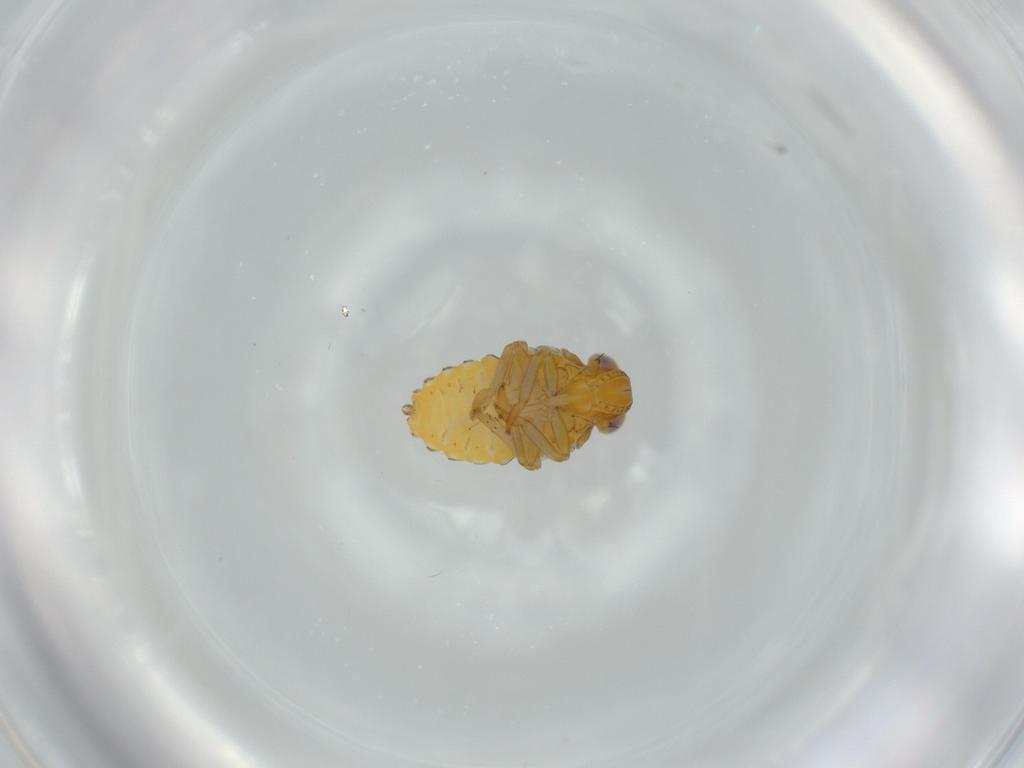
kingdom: Animalia
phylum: Arthropoda
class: Insecta
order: Hemiptera
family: Issidae
